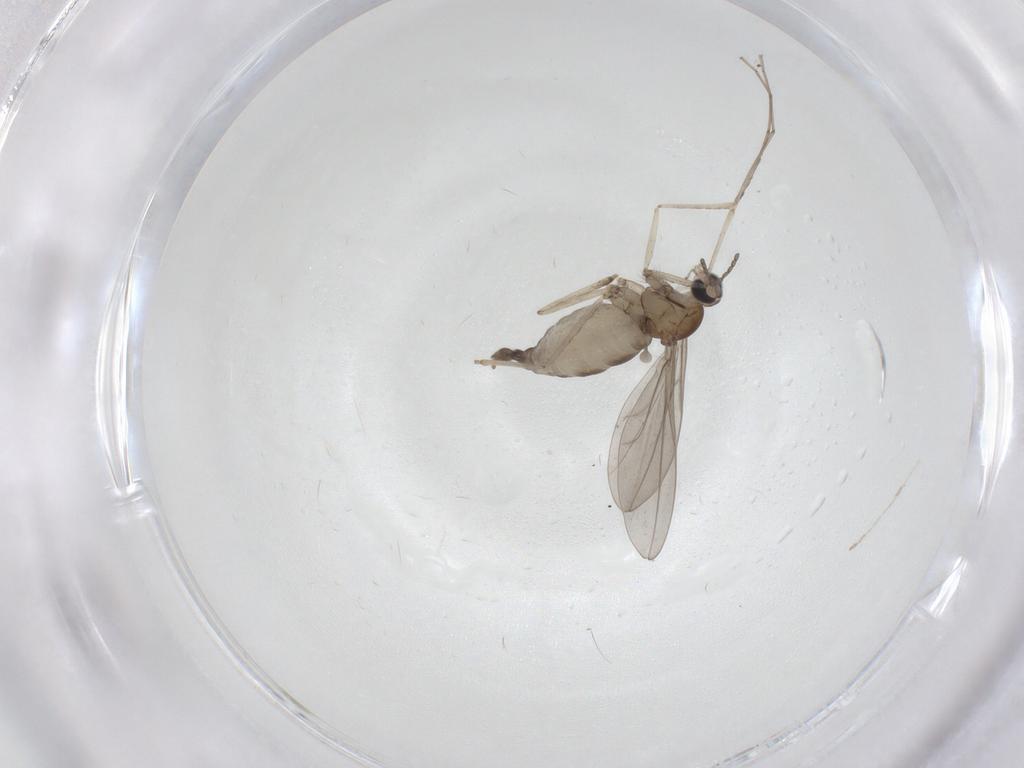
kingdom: Animalia
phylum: Arthropoda
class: Insecta
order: Diptera
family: Cecidomyiidae
